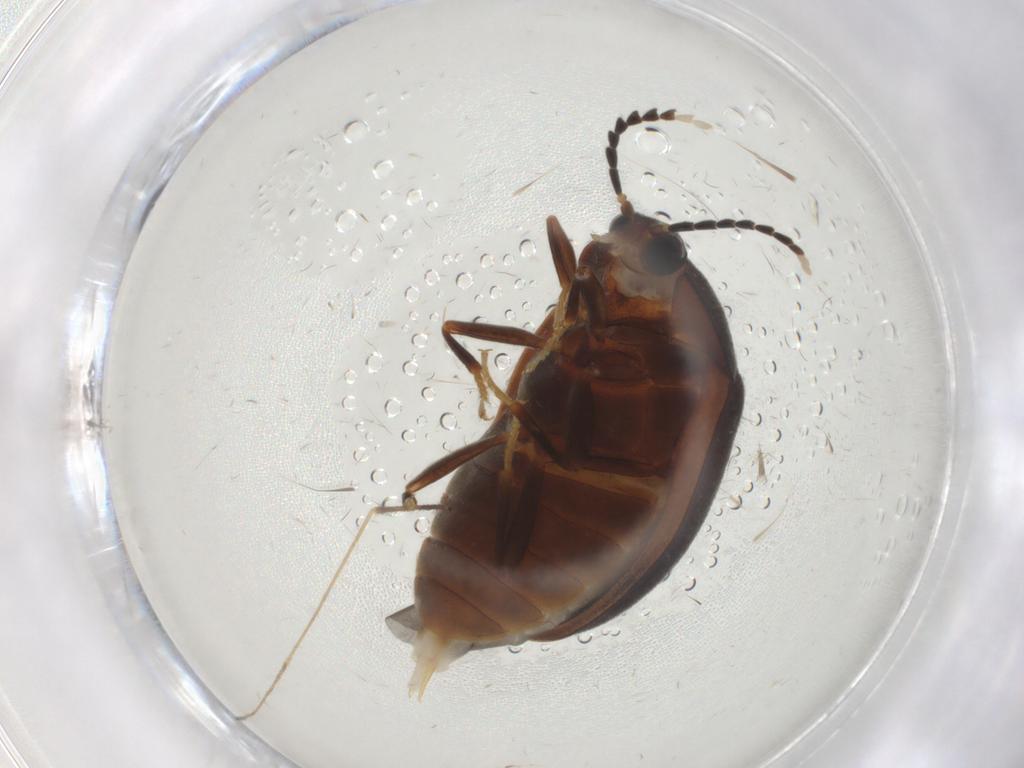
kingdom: Animalia
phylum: Arthropoda
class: Insecta
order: Coleoptera
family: Psephenidae
